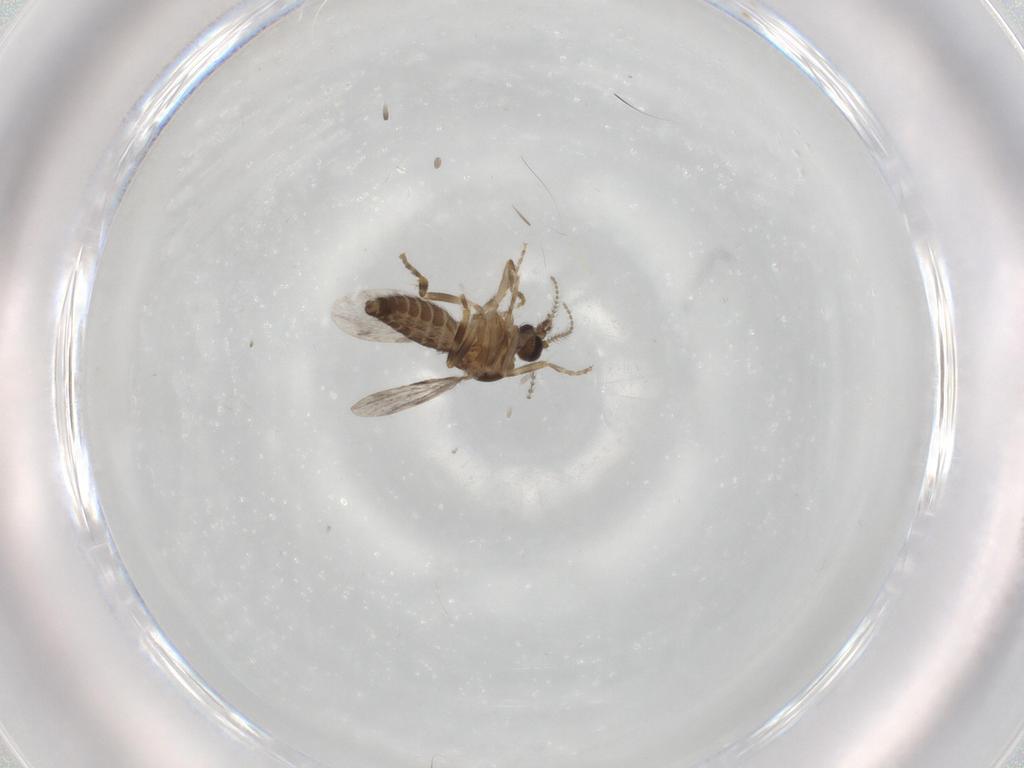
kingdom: Animalia
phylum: Arthropoda
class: Insecta
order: Diptera
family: Ceratopogonidae
